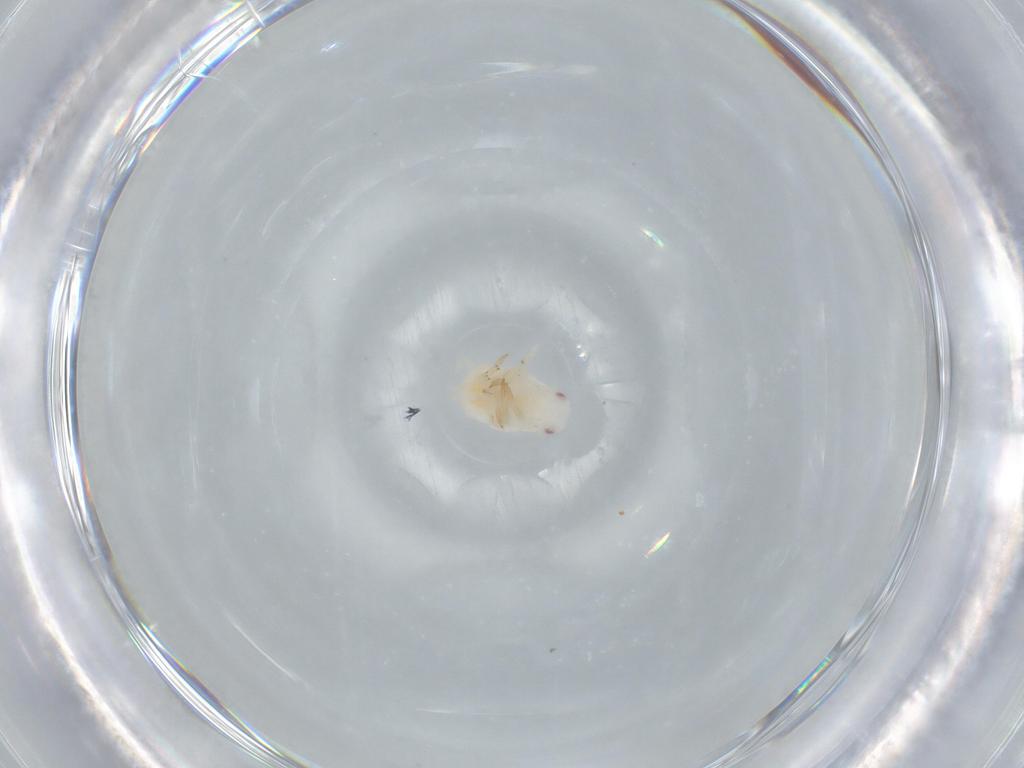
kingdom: Animalia
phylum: Arthropoda
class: Insecta
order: Hemiptera
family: Flatidae
